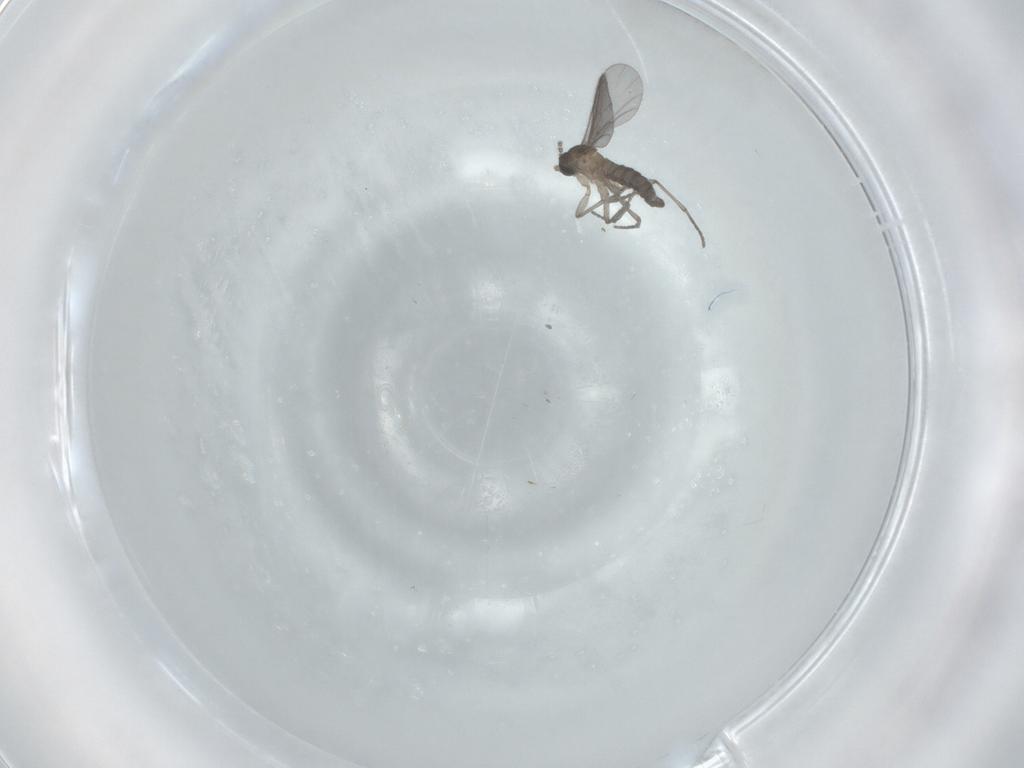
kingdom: Animalia
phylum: Arthropoda
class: Insecta
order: Diptera
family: Sciaridae
